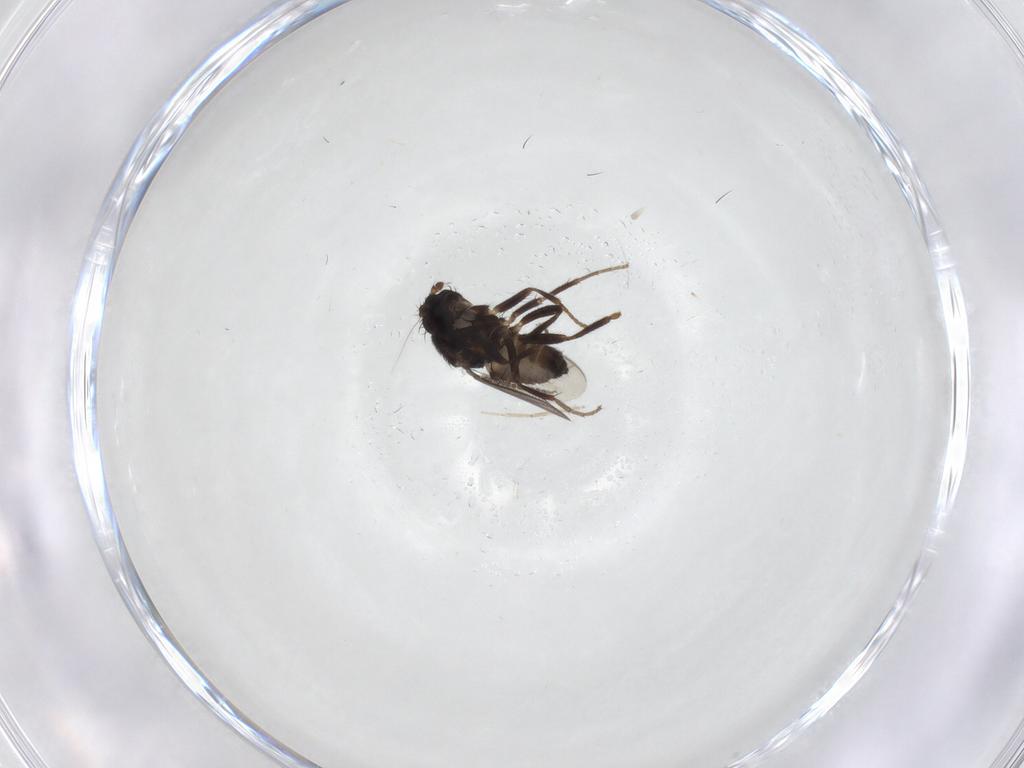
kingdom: Animalia
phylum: Arthropoda
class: Insecta
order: Diptera
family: Sphaeroceridae
